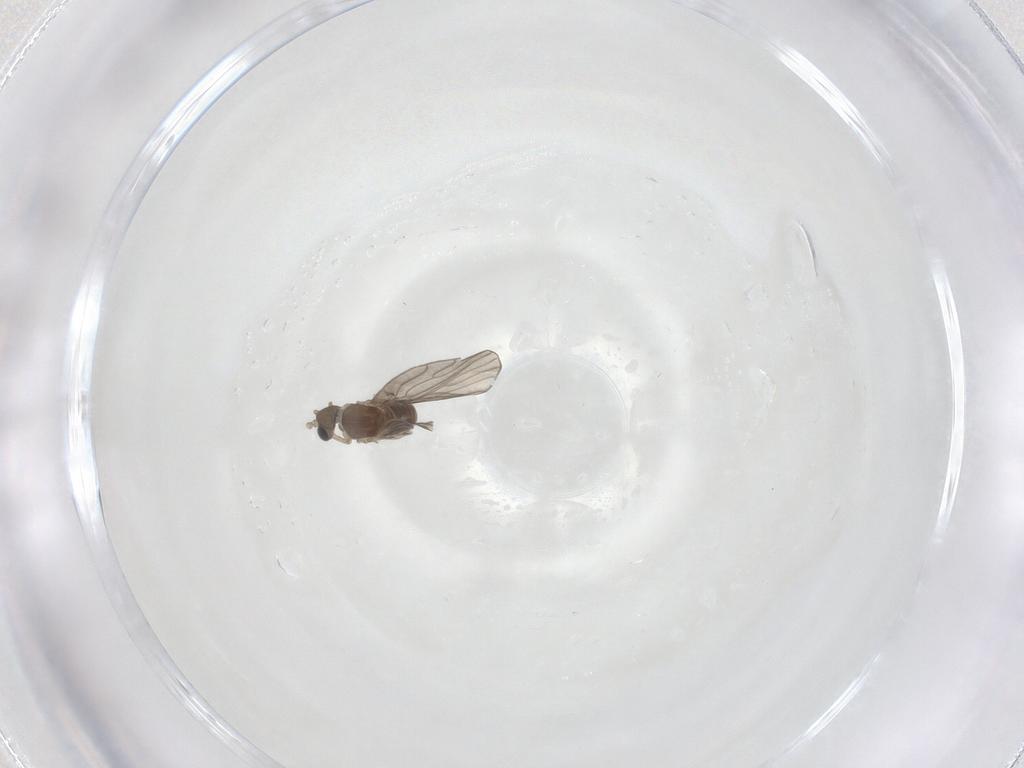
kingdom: Animalia
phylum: Arthropoda
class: Insecta
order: Diptera
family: Psychodidae
